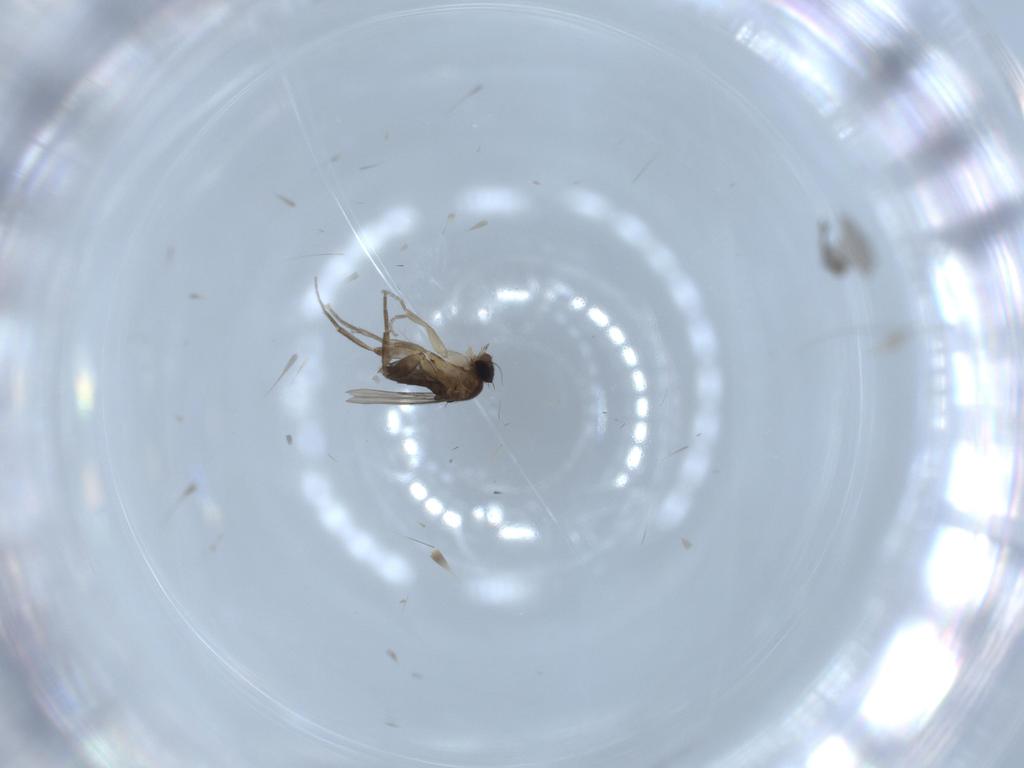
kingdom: Animalia
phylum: Arthropoda
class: Insecta
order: Diptera
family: Phoridae
